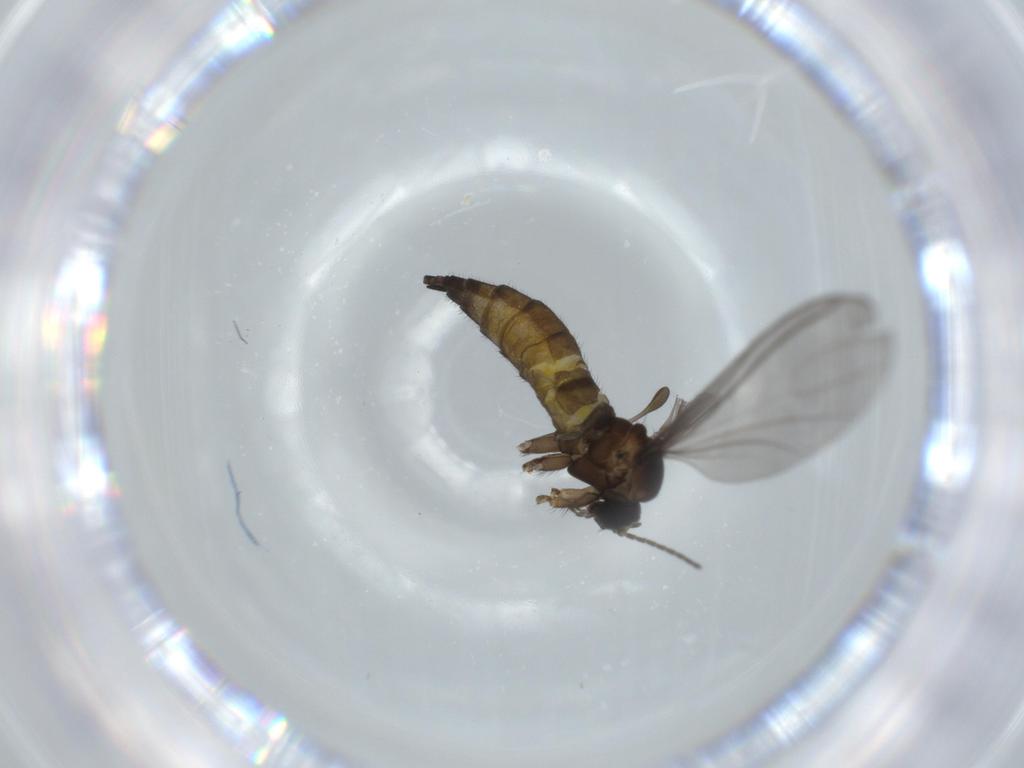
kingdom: Animalia
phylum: Arthropoda
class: Insecta
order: Diptera
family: Sciaridae
